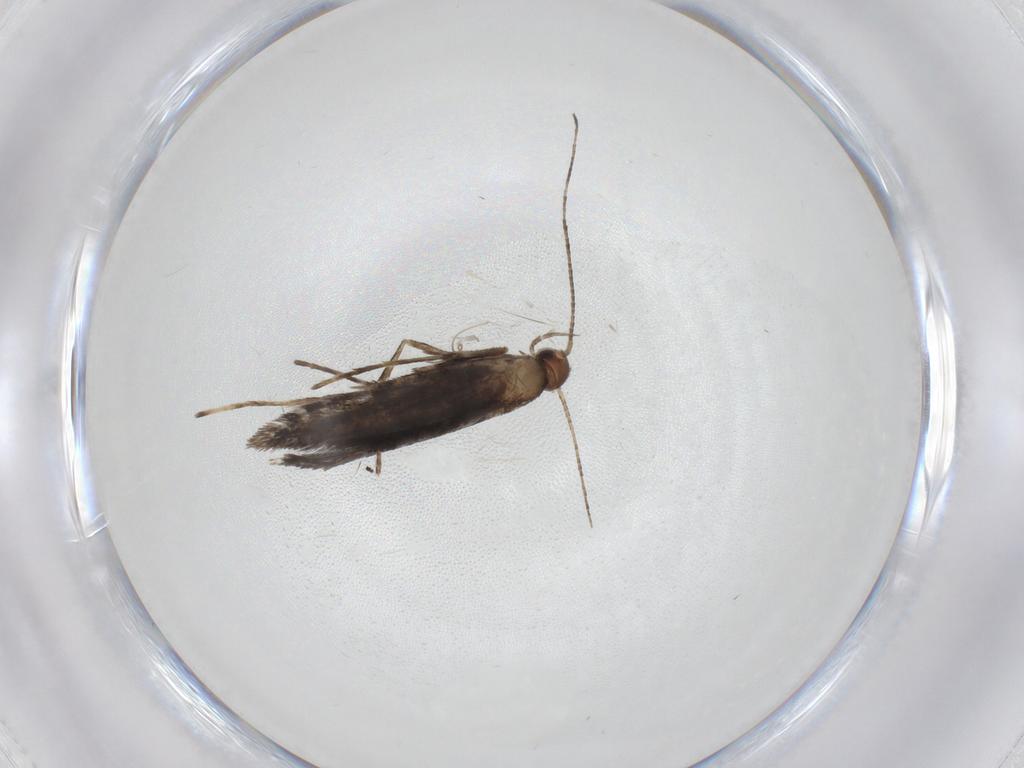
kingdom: Animalia
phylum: Arthropoda
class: Insecta
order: Lepidoptera
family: Gracillariidae
